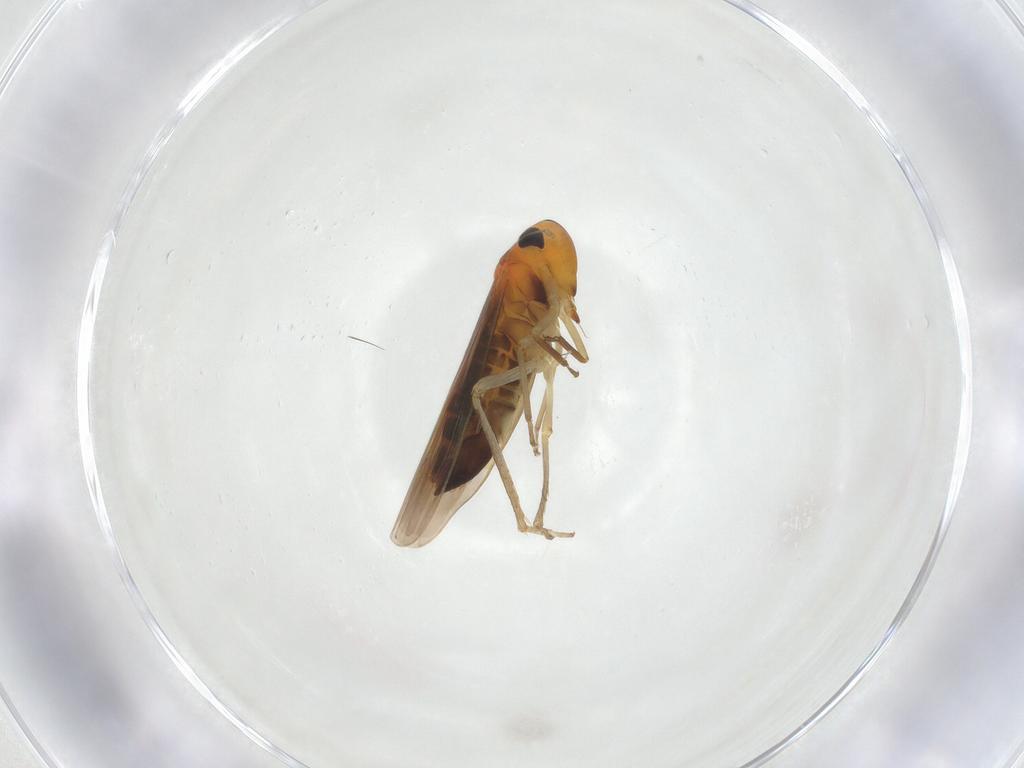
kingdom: Animalia
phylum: Arthropoda
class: Insecta
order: Hemiptera
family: Cicadellidae
